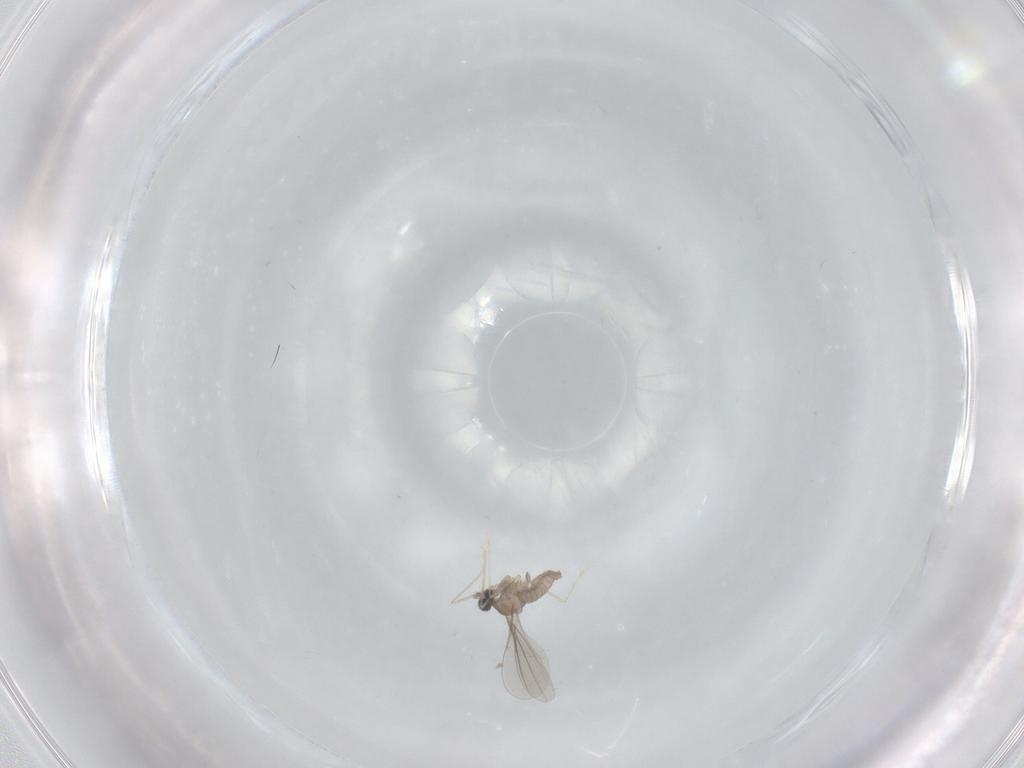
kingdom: Animalia
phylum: Arthropoda
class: Insecta
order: Diptera
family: Cecidomyiidae
